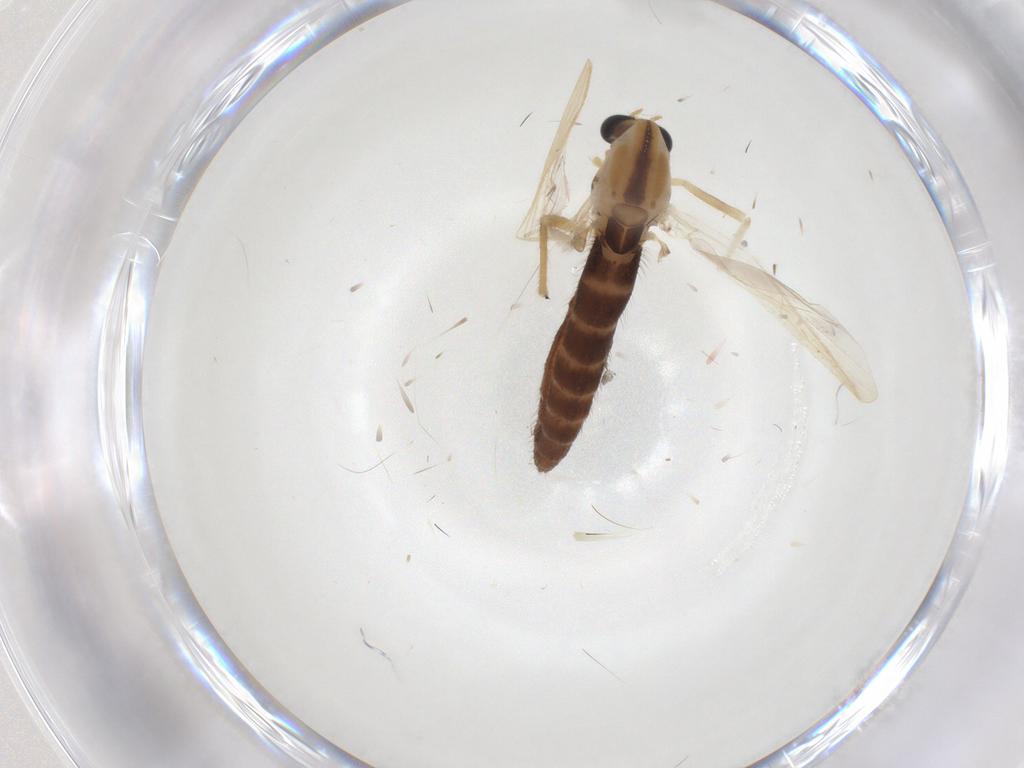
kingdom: Animalia
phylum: Arthropoda
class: Insecta
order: Diptera
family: Chironomidae
